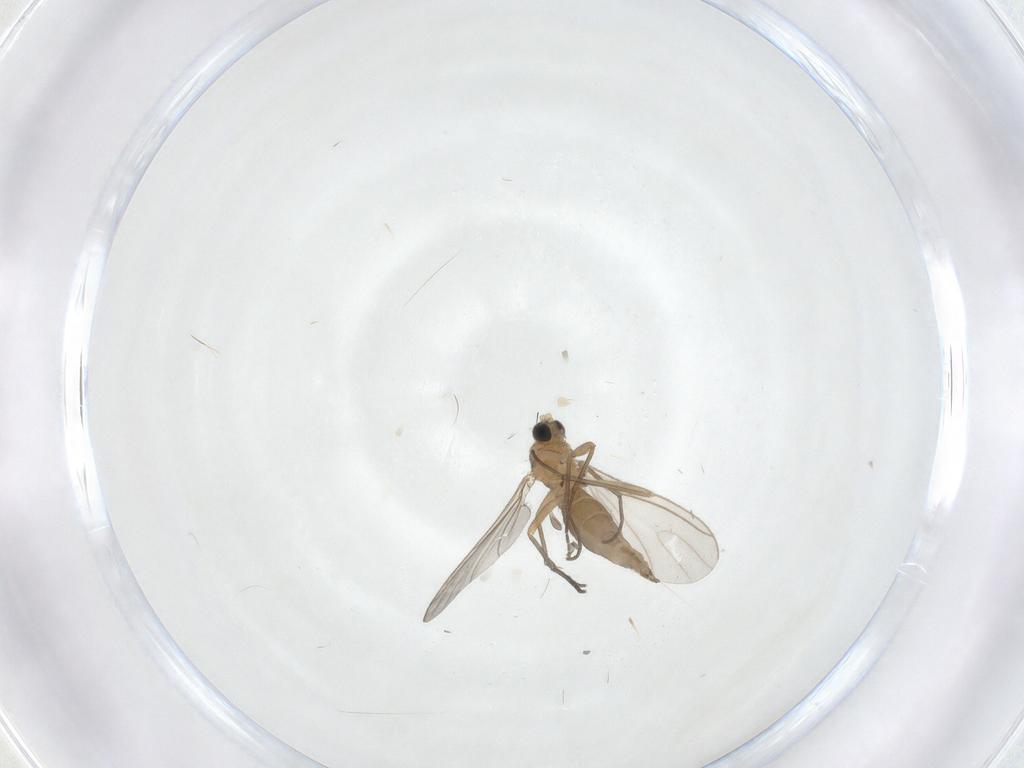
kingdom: Animalia
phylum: Arthropoda
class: Insecta
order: Diptera
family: Sciaridae
